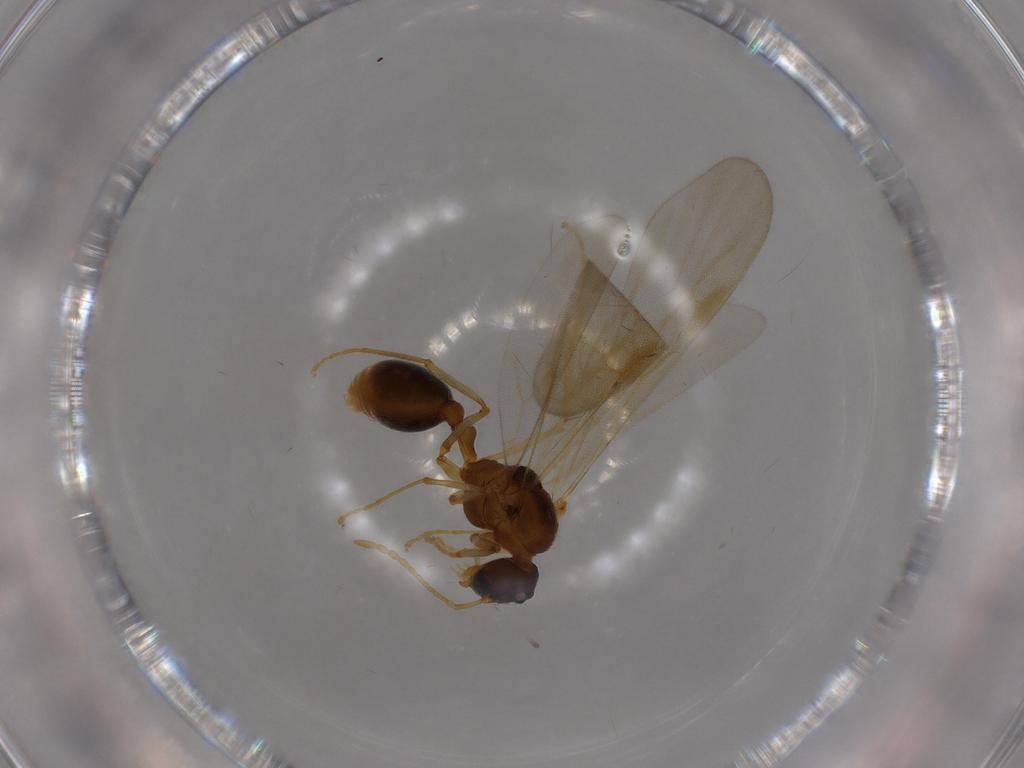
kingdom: Animalia
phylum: Arthropoda
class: Insecta
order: Hymenoptera
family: Formicidae
